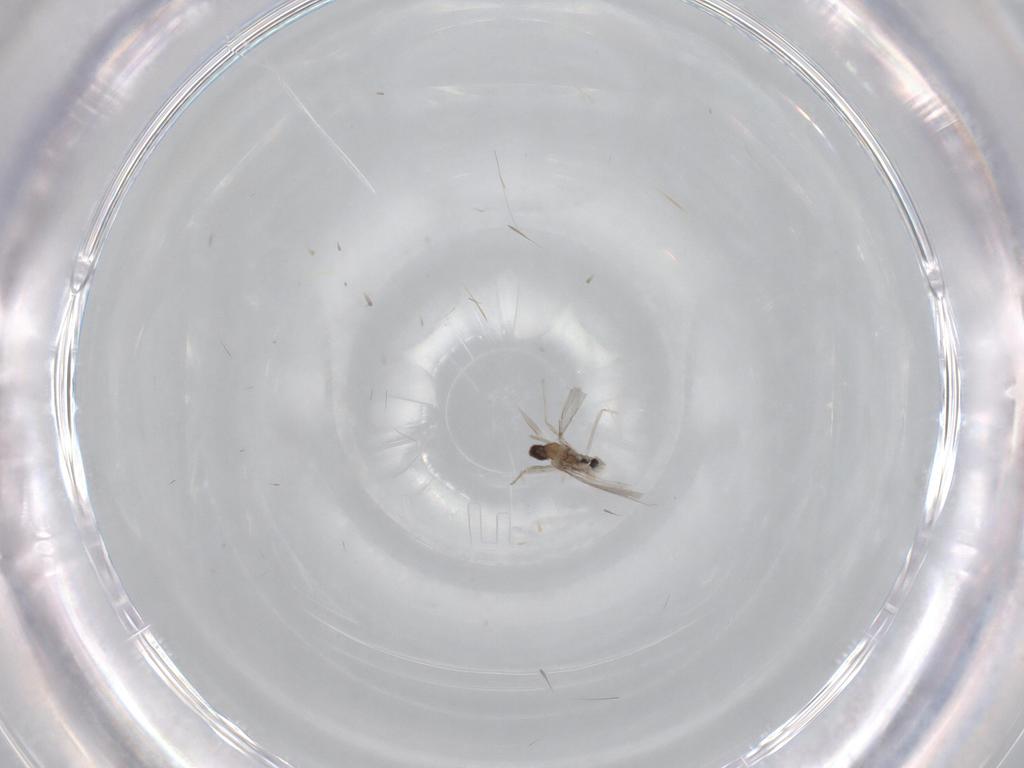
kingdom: Animalia
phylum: Arthropoda
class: Insecta
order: Diptera
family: Cecidomyiidae
